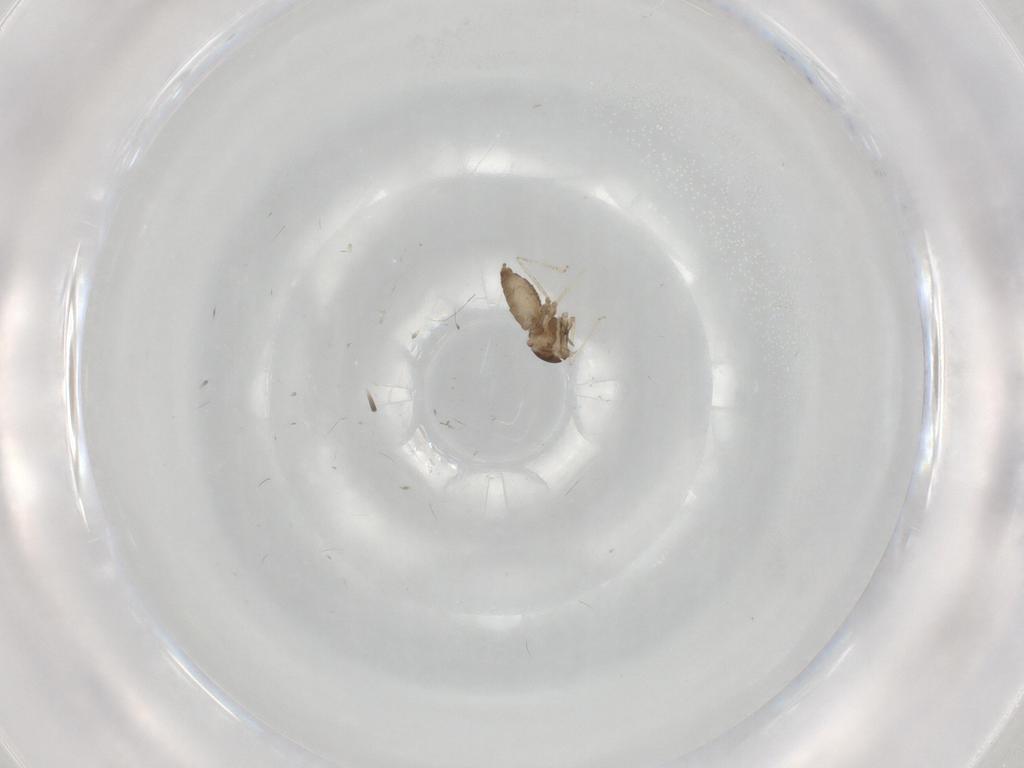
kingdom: Animalia
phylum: Arthropoda
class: Insecta
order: Diptera
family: Cecidomyiidae
